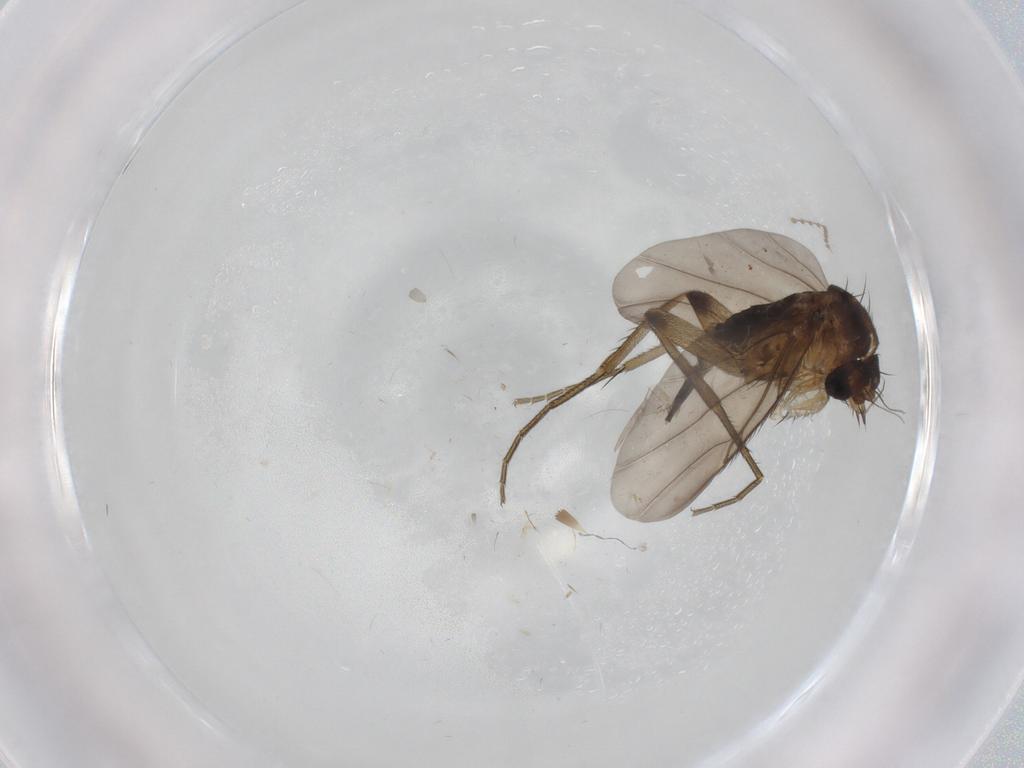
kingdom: Animalia
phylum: Arthropoda
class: Insecta
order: Diptera
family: Phoridae
